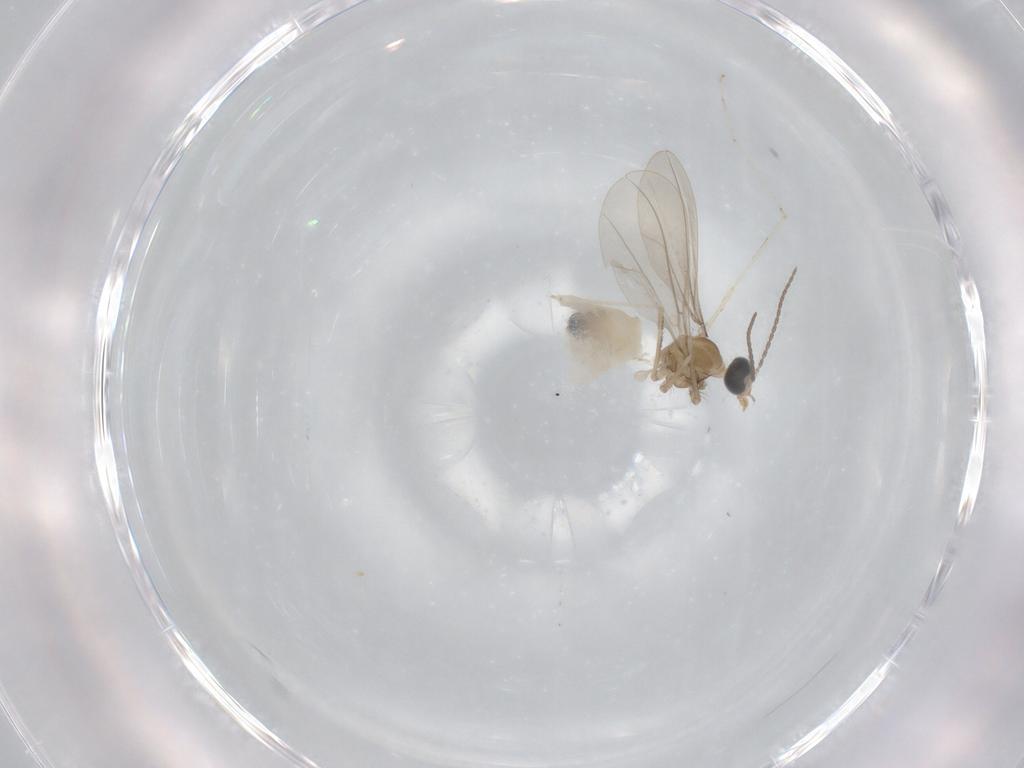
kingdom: Animalia
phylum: Arthropoda
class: Insecta
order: Diptera
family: Cecidomyiidae
